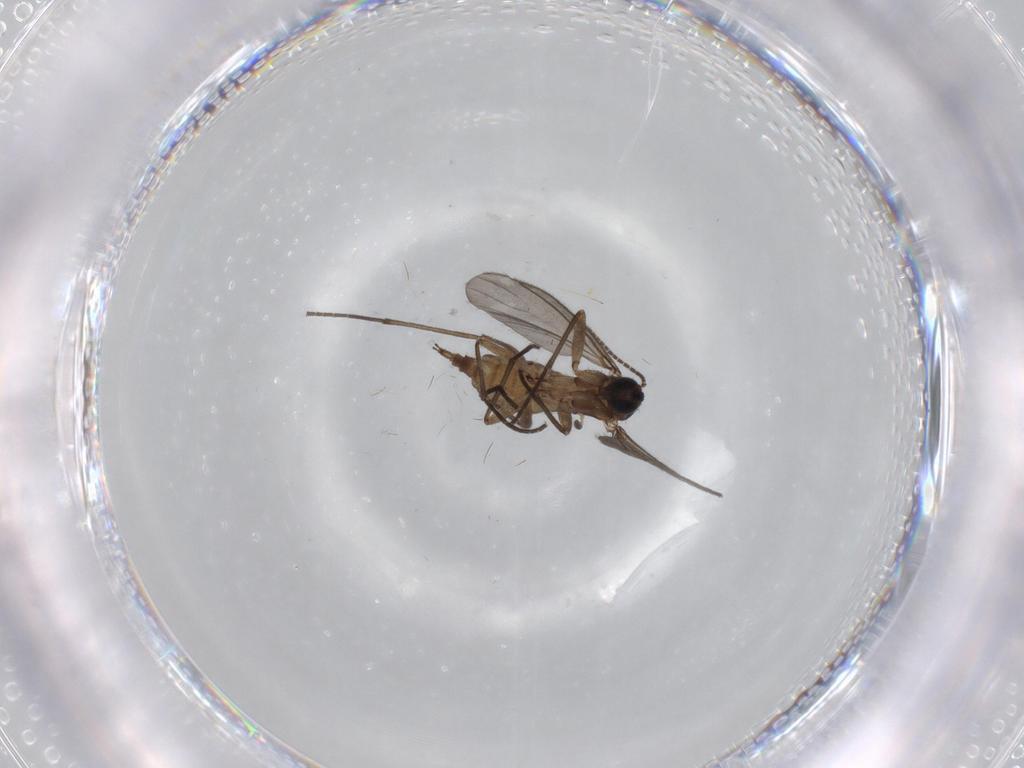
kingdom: Animalia
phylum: Arthropoda
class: Insecta
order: Diptera
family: Sciaridae
